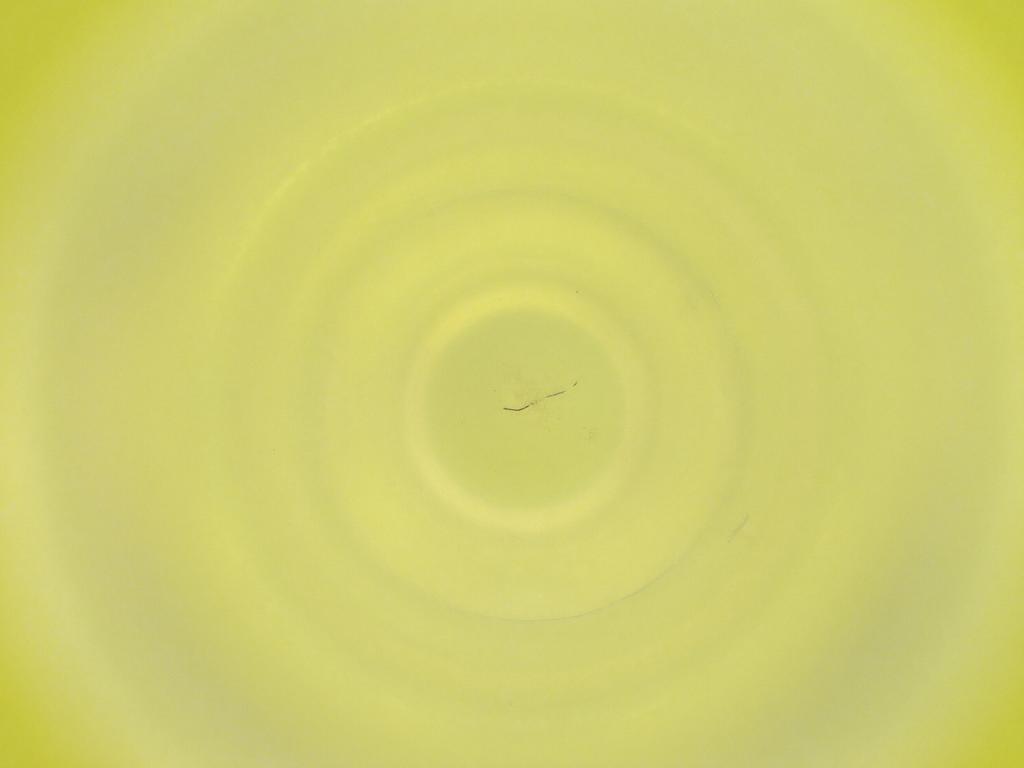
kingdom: Animalia
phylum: Arthropoda
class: Insecta
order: Diptera
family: Cecidomyiidae
